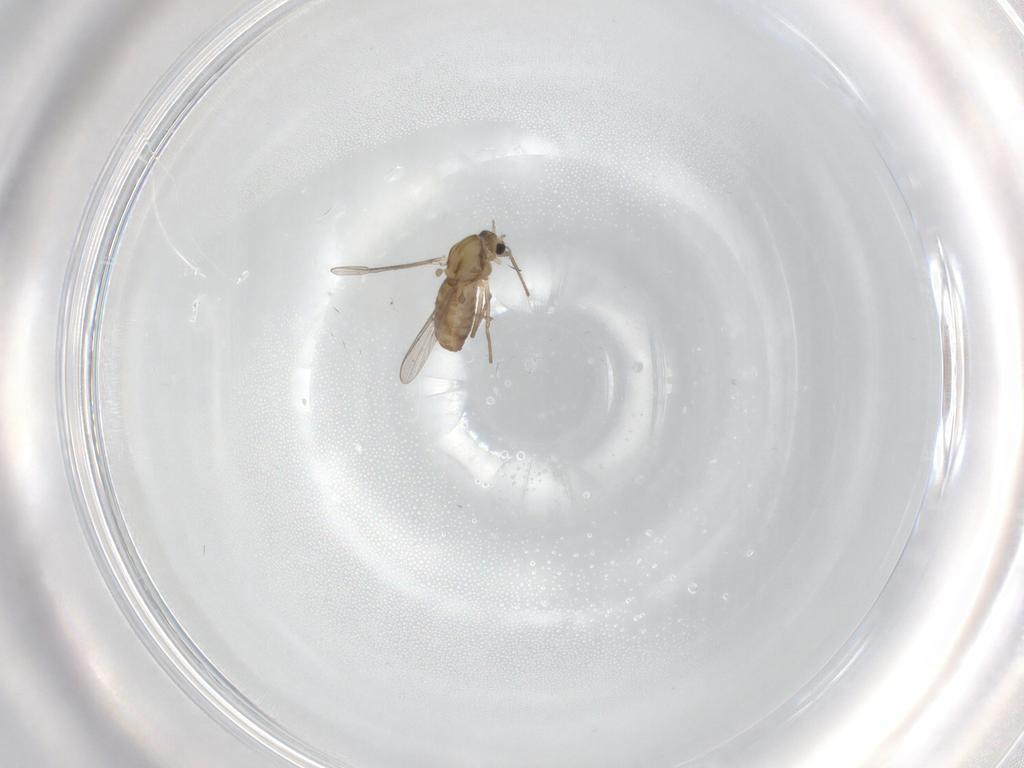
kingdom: Animalia
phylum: Arthropoda
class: Insecta
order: Diptera
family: Chironomidae
